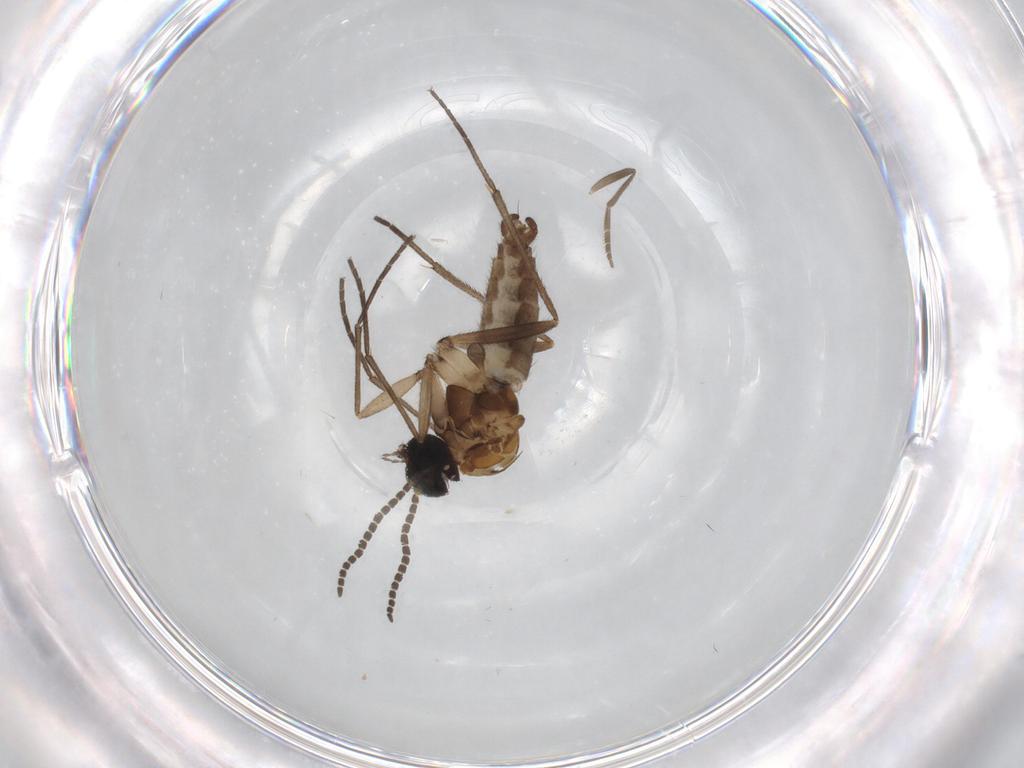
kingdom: Animalia
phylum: Arthropoda
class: Insecta
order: Diptera
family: Sciaridae
